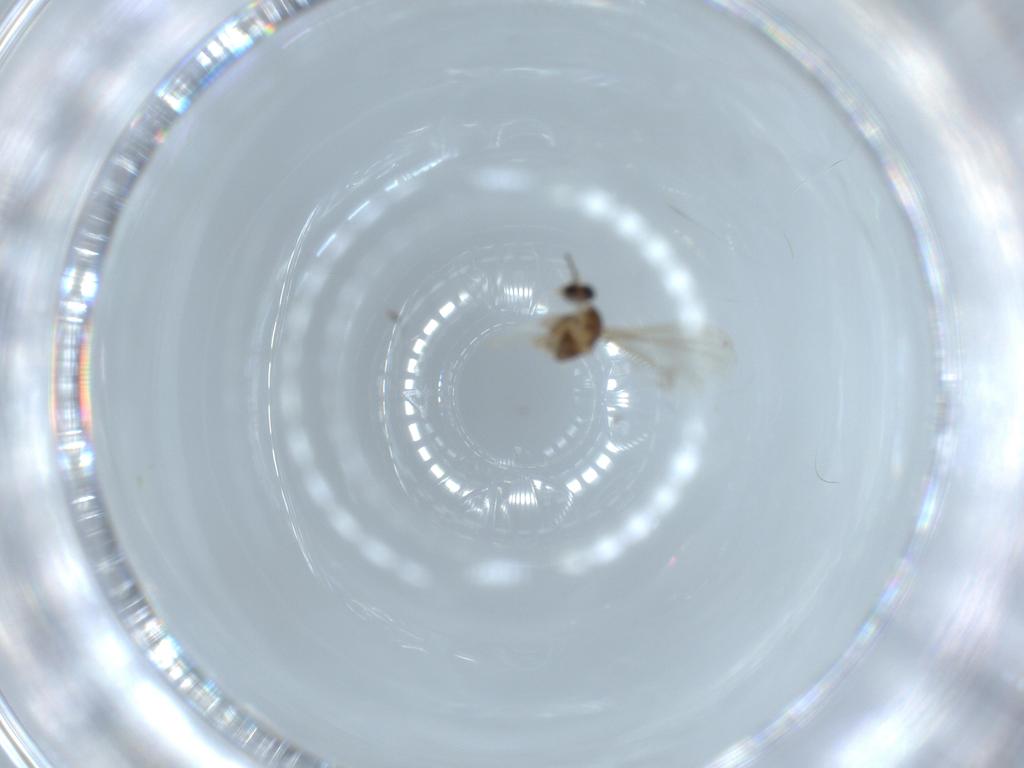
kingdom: Animalia
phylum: Arthropoda
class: Insecta
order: Diptera
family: Cecidomyiidae
